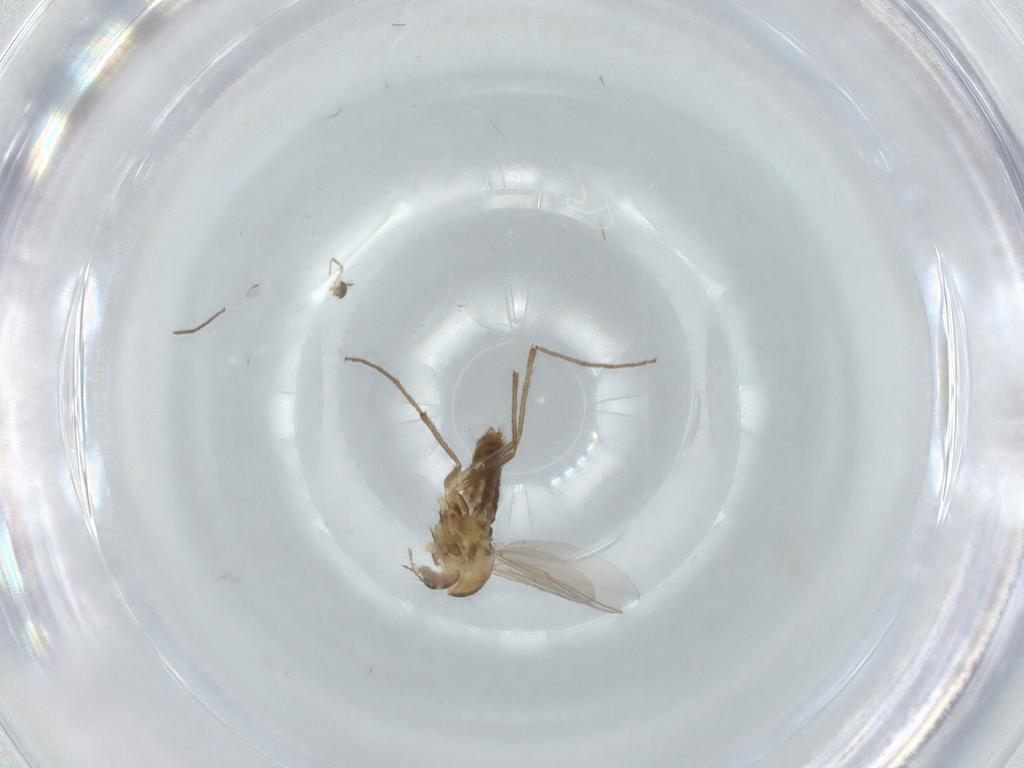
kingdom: Animalia
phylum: Arthropoda
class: Insecta
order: Diptera
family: Chironomidae
